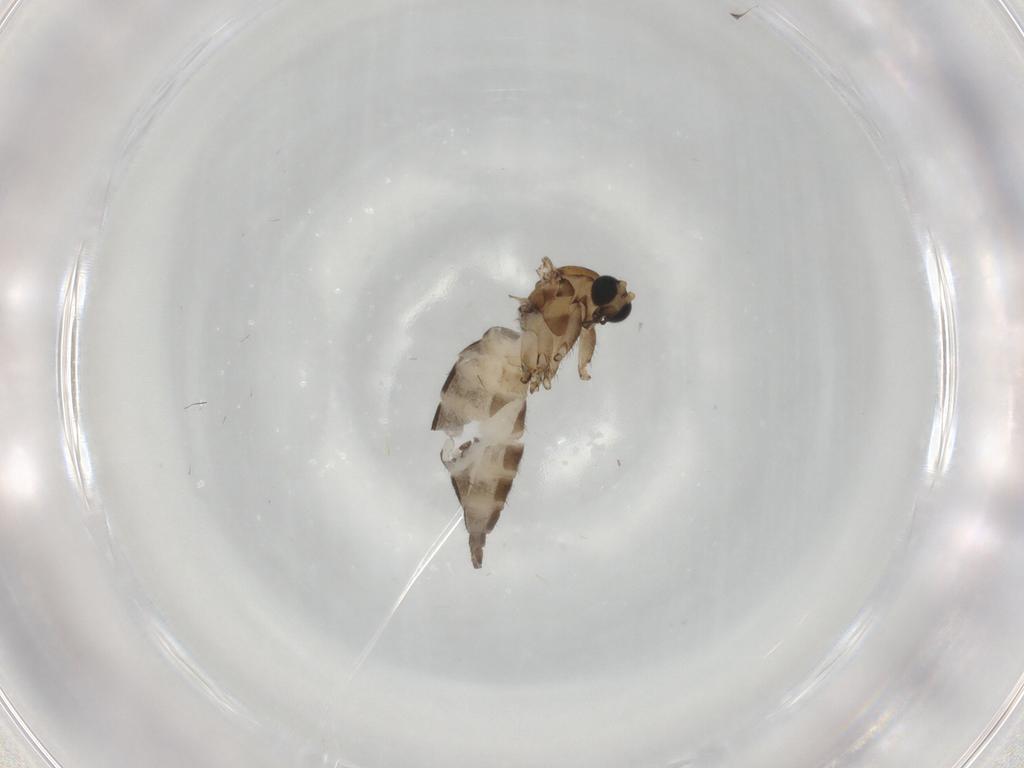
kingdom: Animalia
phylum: Arthropoda
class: Insecta
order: Diptera
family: Sciaridae
